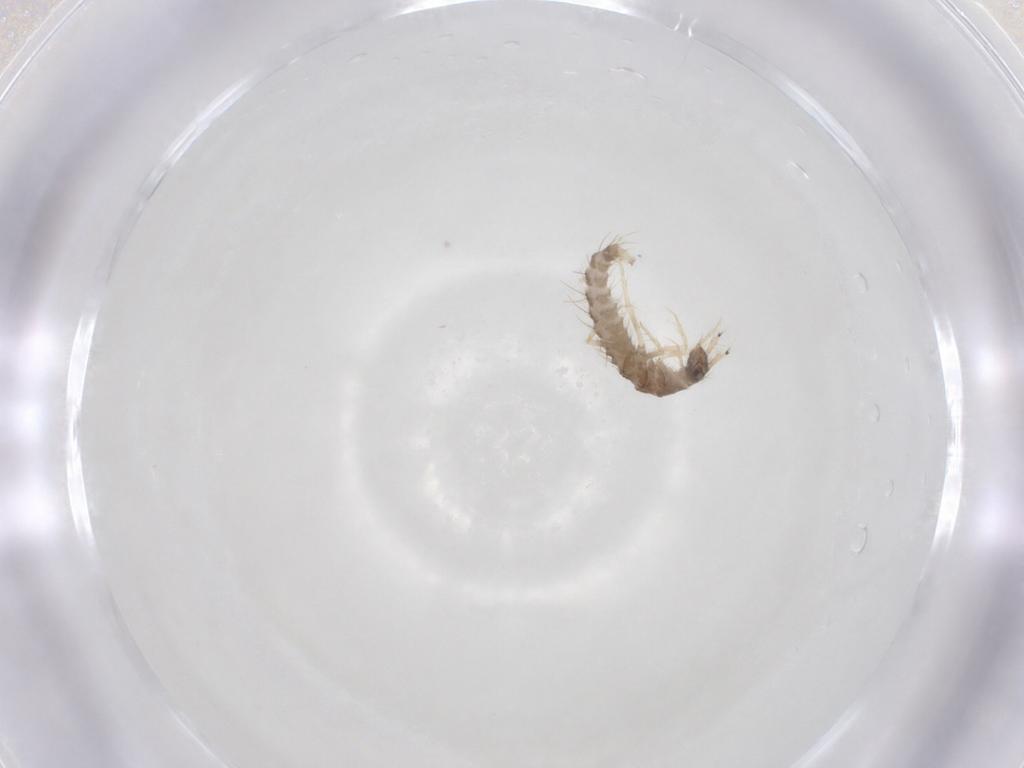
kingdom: Animalia
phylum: Arthropoda
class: Insecta
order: Coleoptera
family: Staphylinidae
